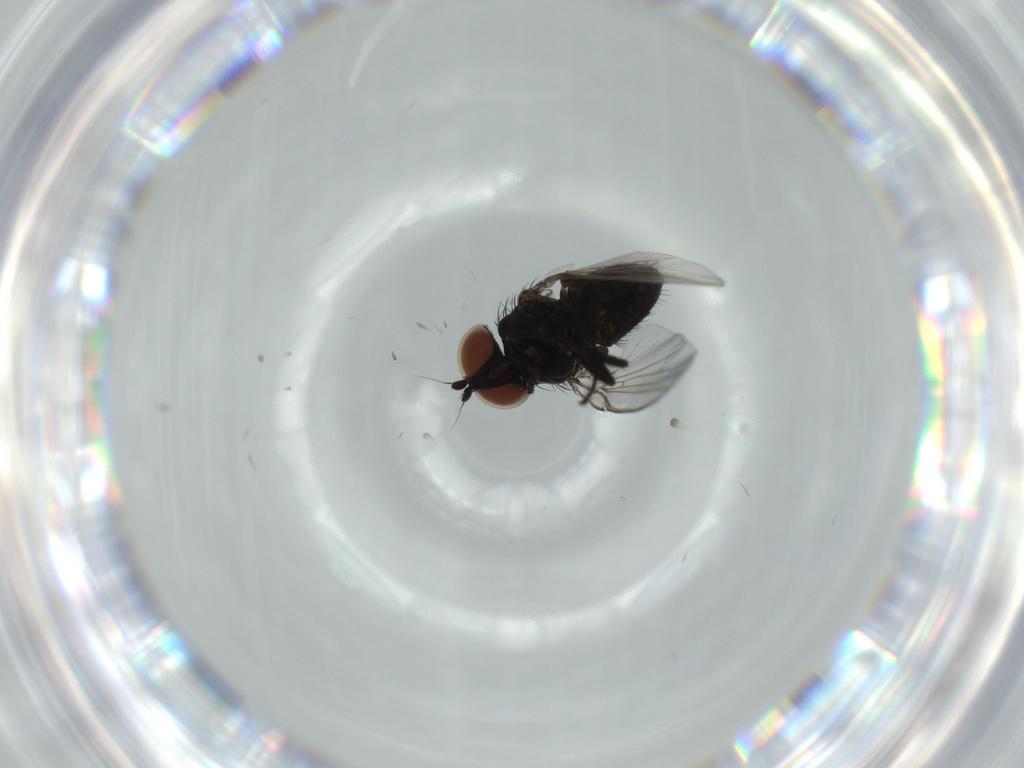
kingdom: Animalia
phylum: Arthropoda
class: Insecta
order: Diptera
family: Milichiidae
